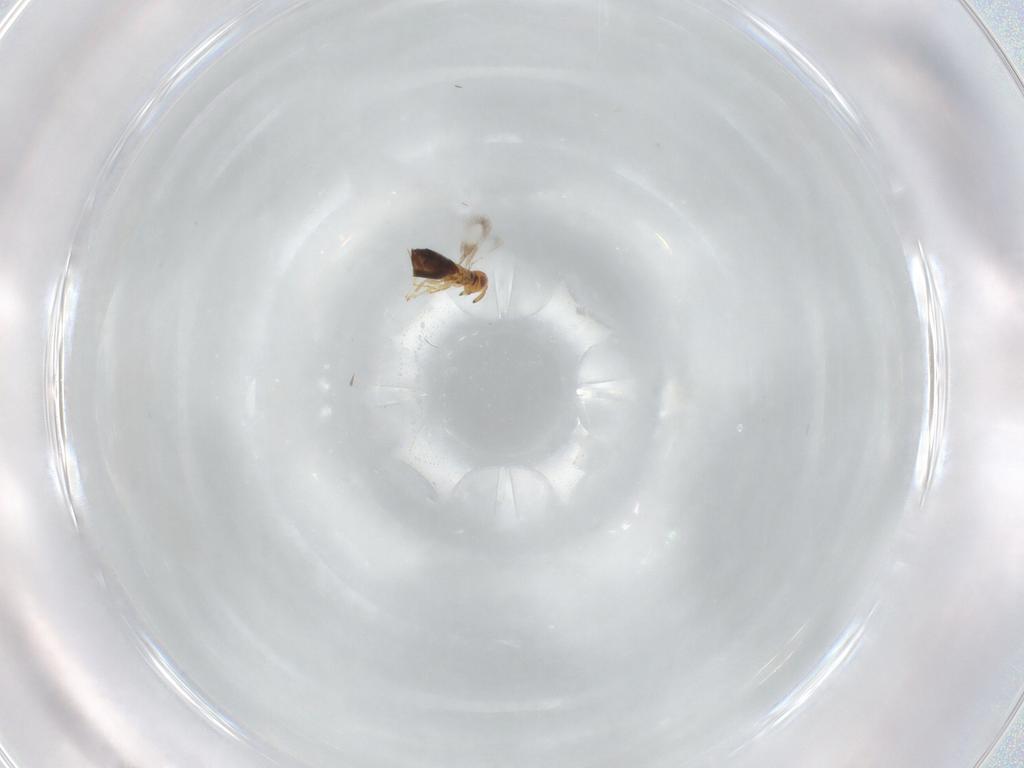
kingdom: Animalia
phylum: Arthropoda
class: Insecta
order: Hymenoptera
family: Signiphoridae
